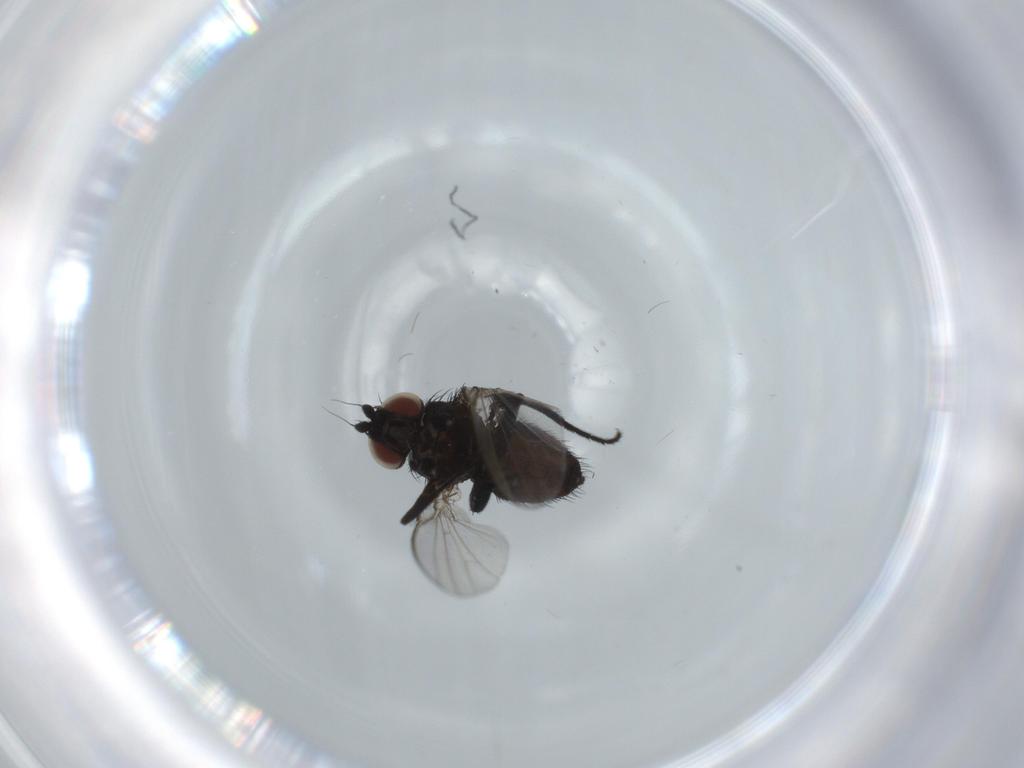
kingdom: Animalia
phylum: Arthropoda
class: Insecta
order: Diptera
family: Milichiidae
